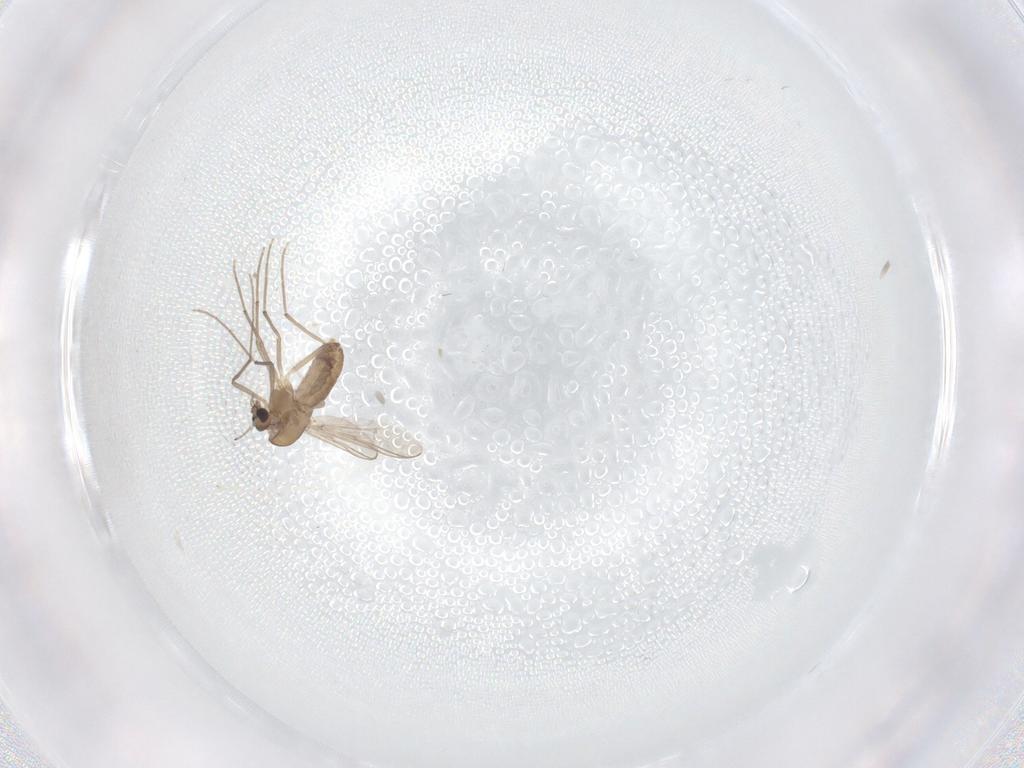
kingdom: Animalia
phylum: Arthropoda
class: Insecta
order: Diptera
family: Chironomidae
